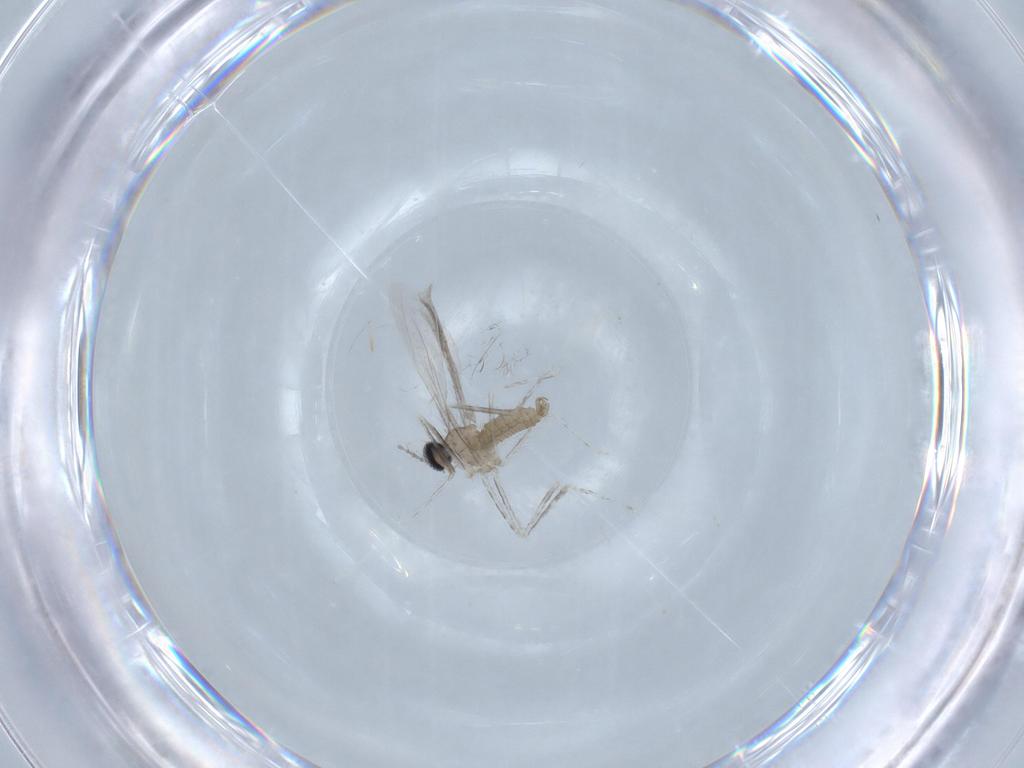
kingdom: Animalia
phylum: Arthropoda
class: Insecta
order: Diptera
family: Cecidomyiidae
